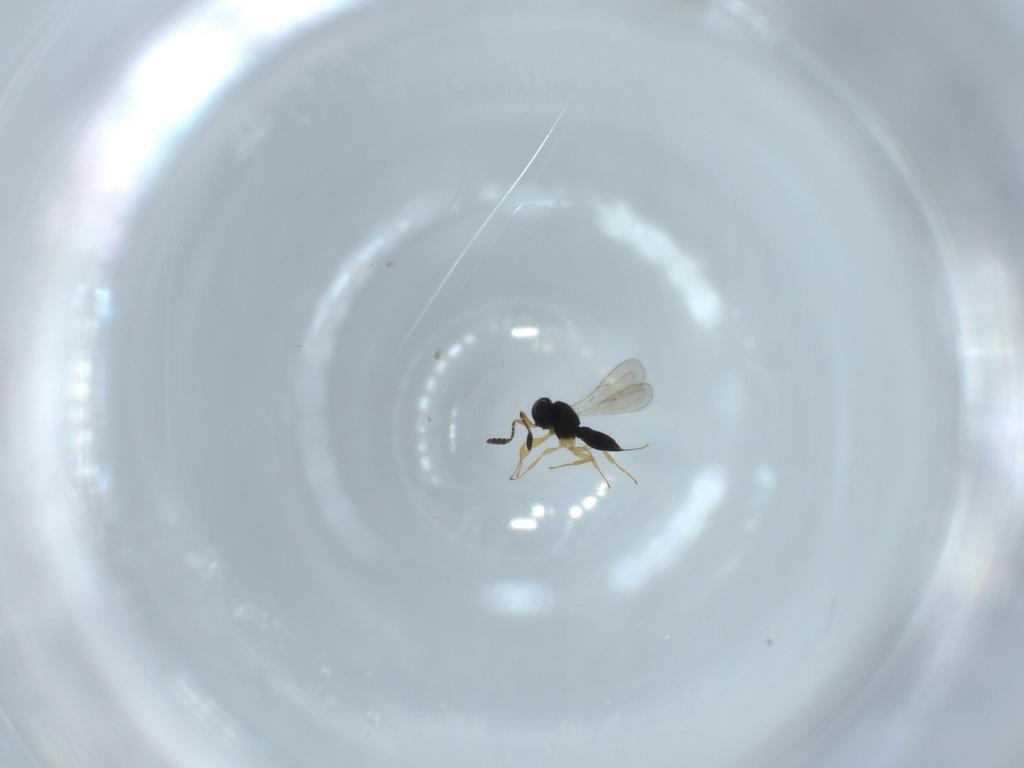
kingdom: Animalia
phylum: Arthropoda
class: Insecta
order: Hymenoptera
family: Scelionidae
